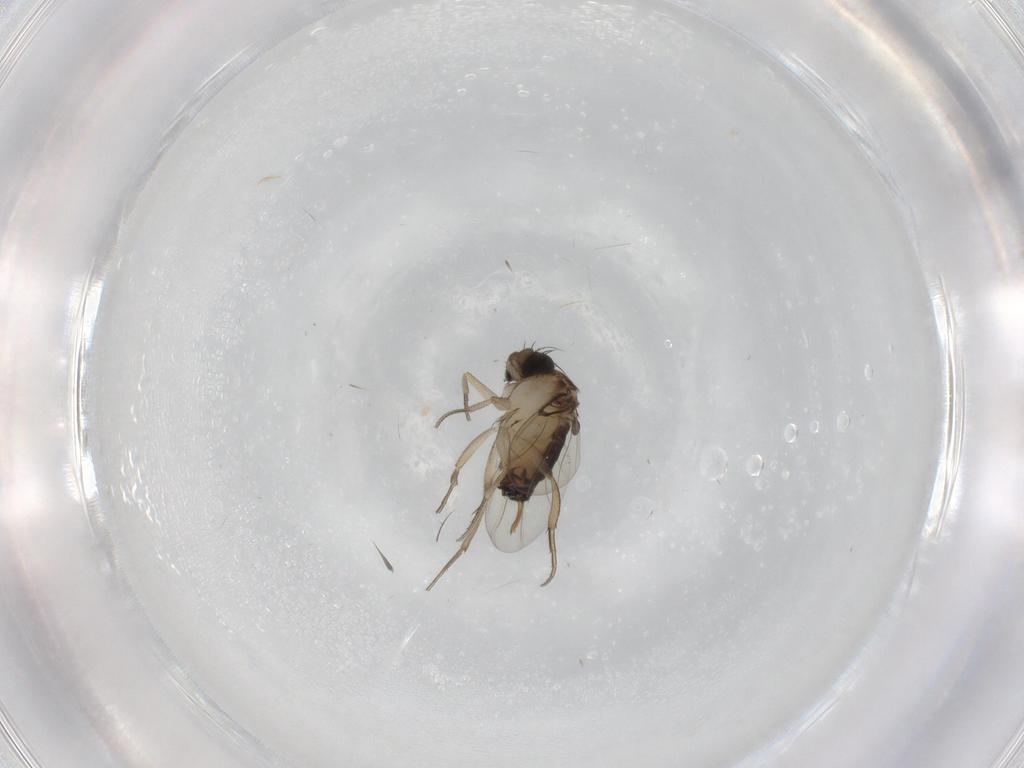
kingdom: Animalia
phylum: Arthropoda
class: Insecta
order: Diptera
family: Phoridae
